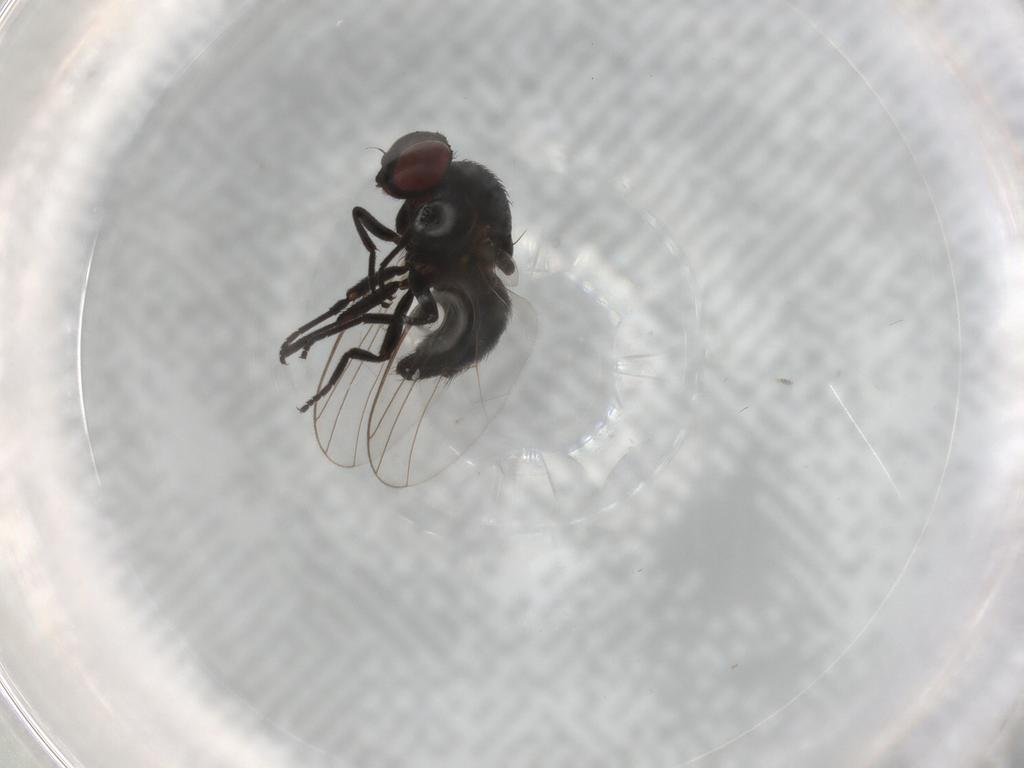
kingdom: Animalia
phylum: Arthropoda
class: Insecta
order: Diptera
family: Agromyzidae
